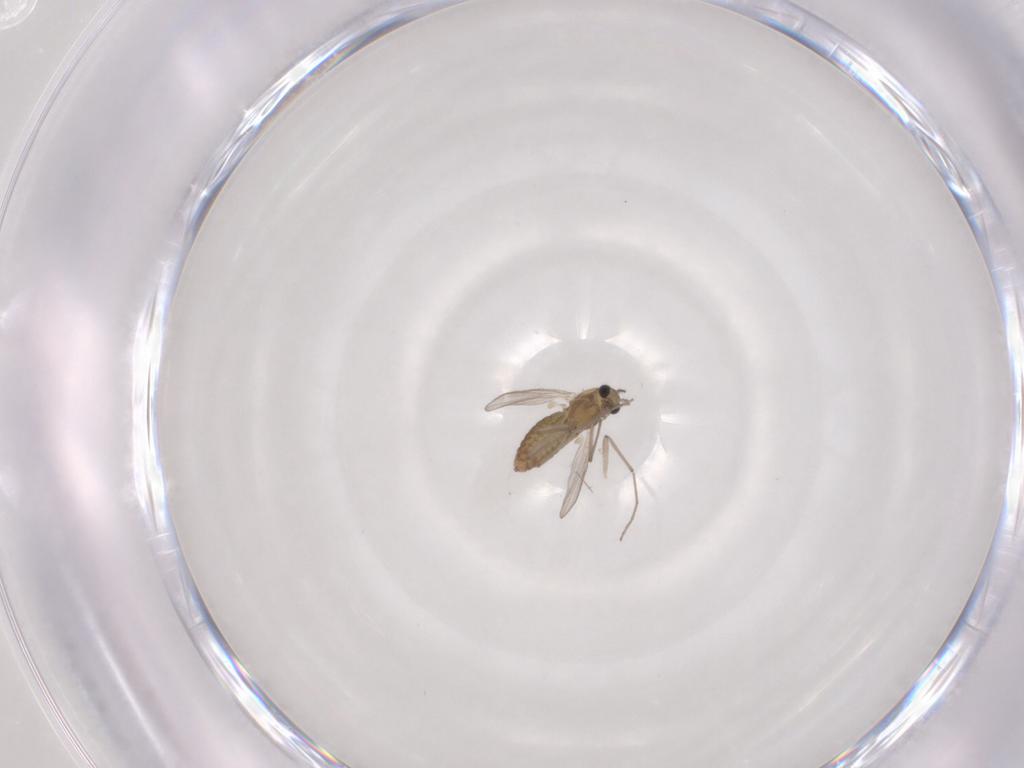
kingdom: Animalia
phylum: Arthropoda
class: Insecta
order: Diptera
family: Chironomidae
